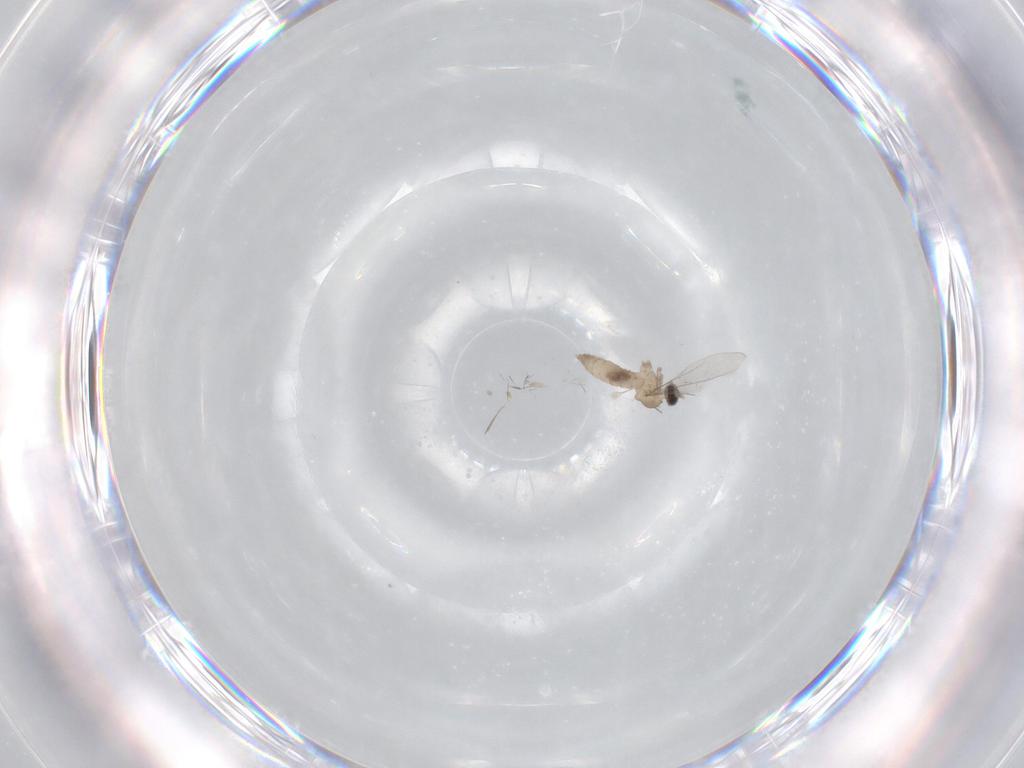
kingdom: Animalia
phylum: Arthropoda
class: Insecta
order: Diptera
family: Cecidomyiidae
